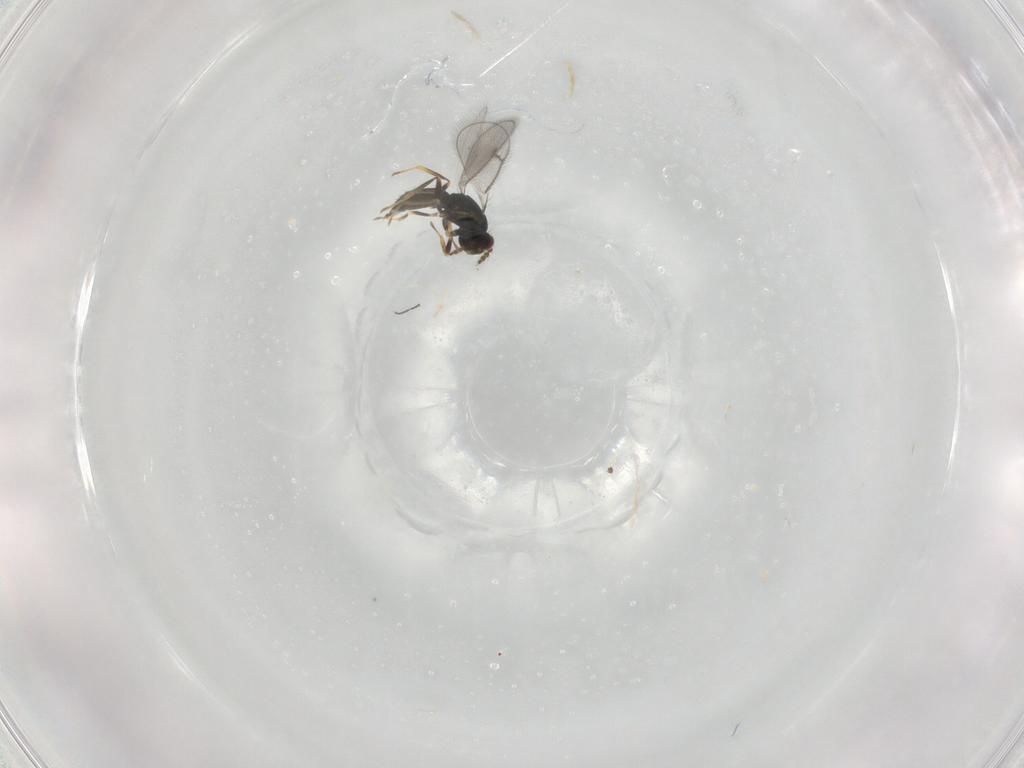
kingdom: Animalia
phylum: Arthropoda
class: Insecta
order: Hymenoptera
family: Eulophidae
